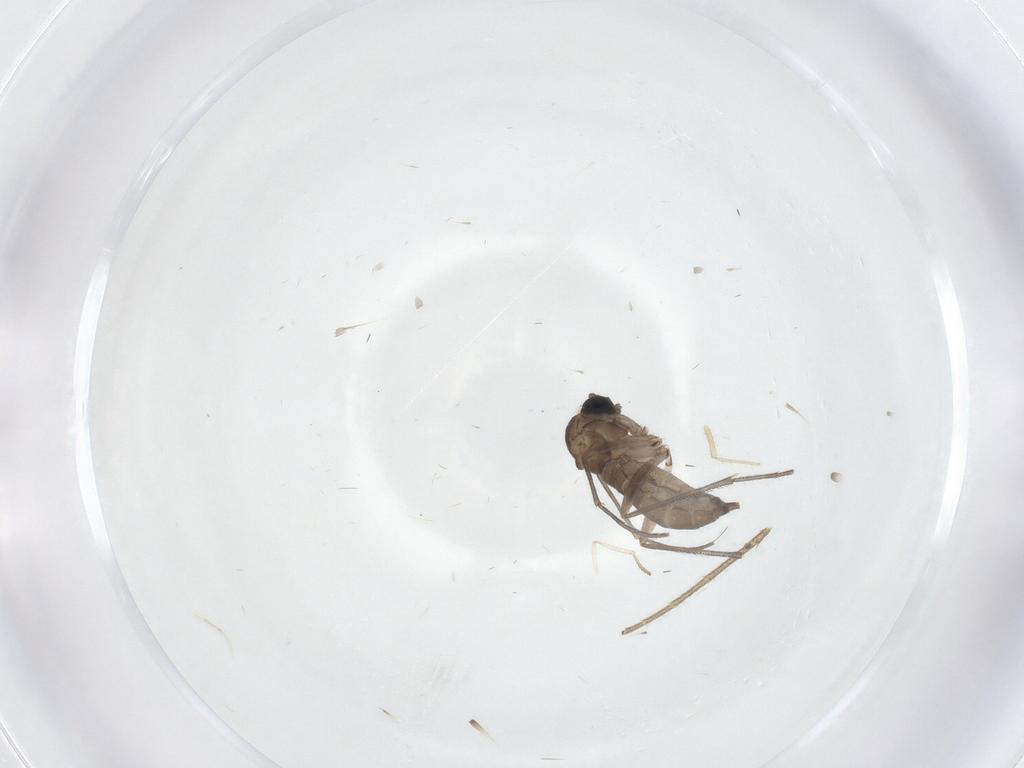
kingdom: Animalia
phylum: Arthropoda
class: Insecta
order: Diptera
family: Sciaridae
